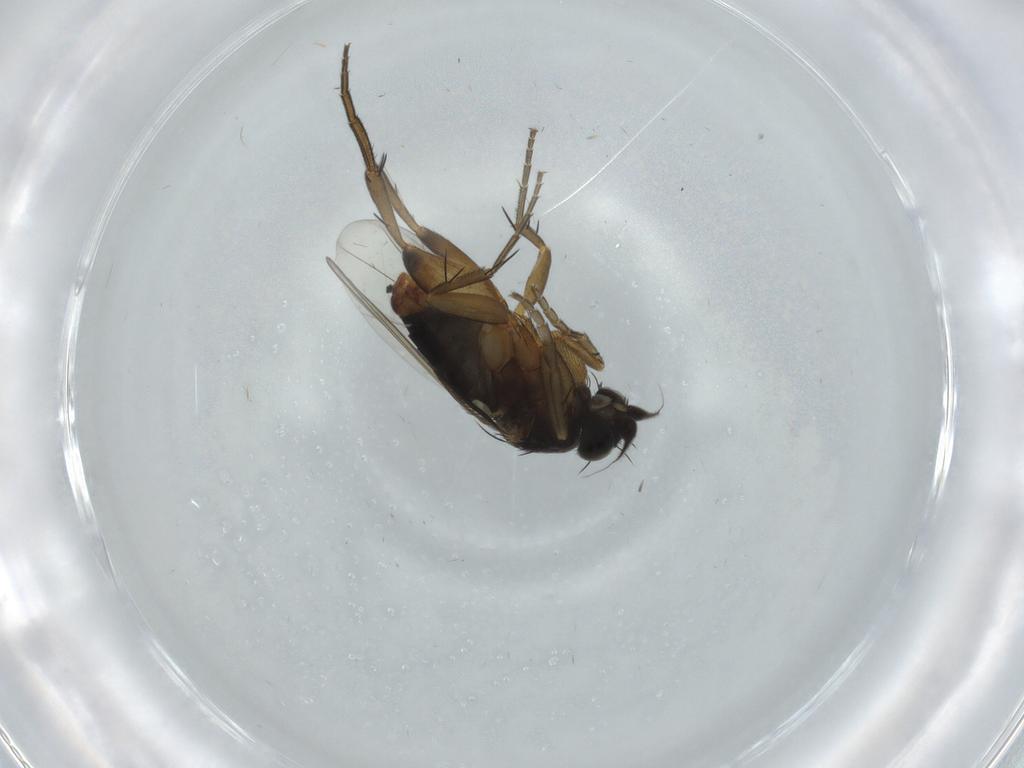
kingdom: Animalia
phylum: Arthropoda
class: Insecta
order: Diptera
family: Phoridae
